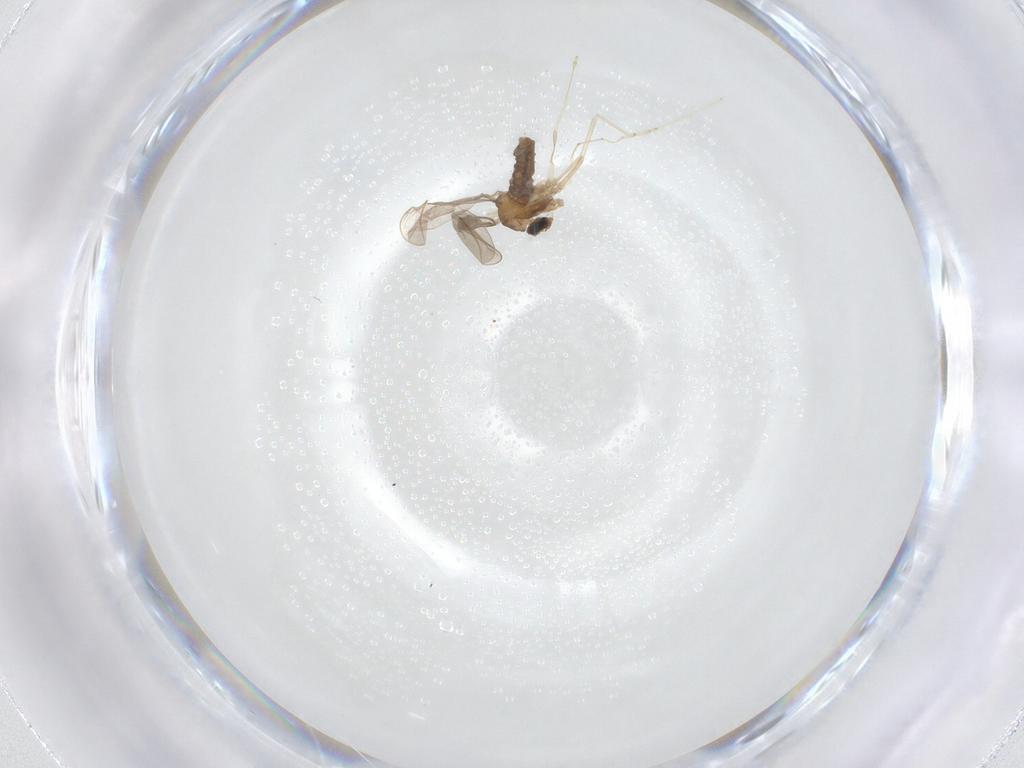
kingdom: Animalia
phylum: Arthropoda
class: Insecta
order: Diptera
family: Cecidomyiidae
